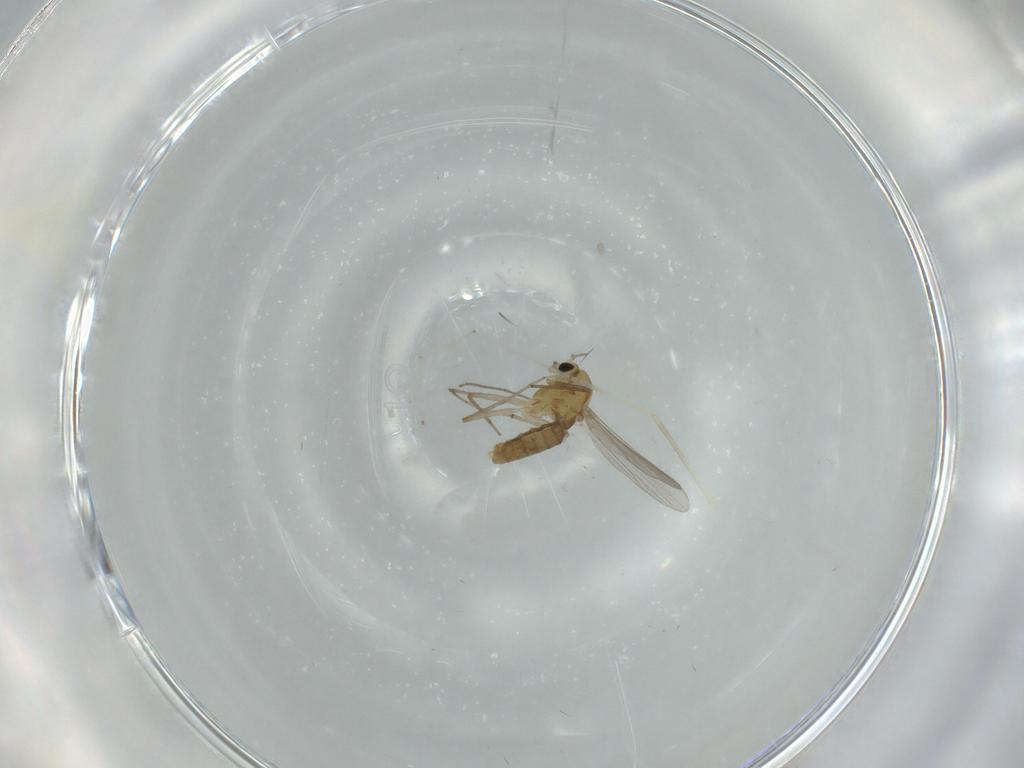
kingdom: Animalia
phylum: Arthropoda
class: Insecta
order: Diptera
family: Chironomidae
